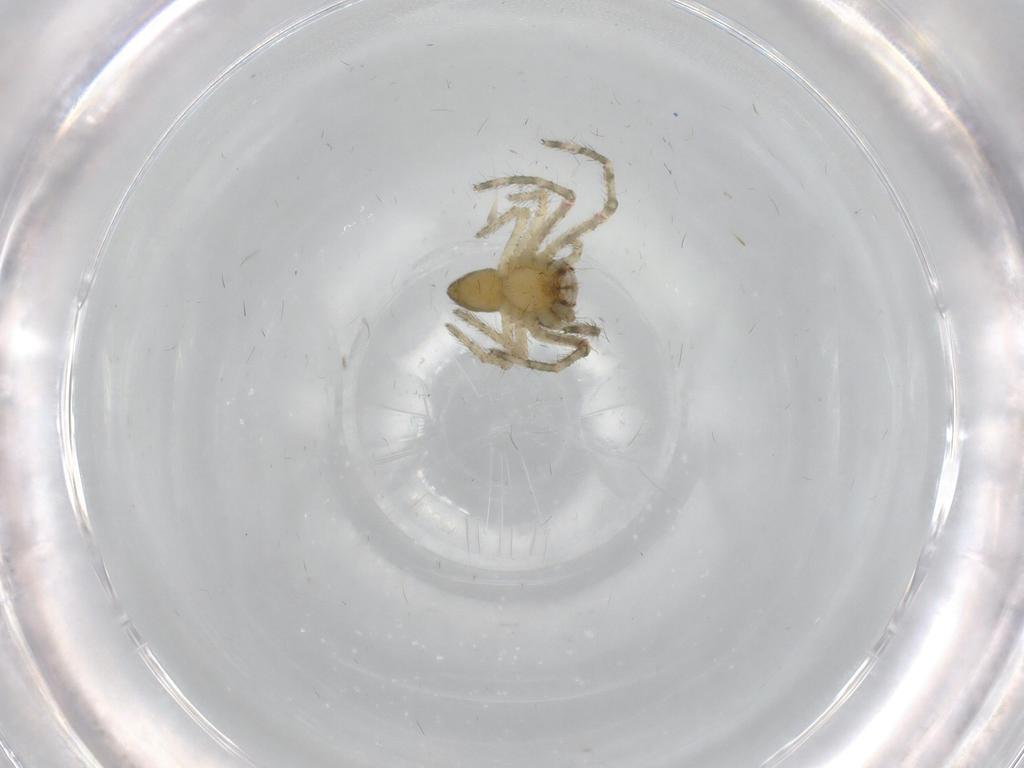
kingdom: Animalia
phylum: Arthropoda
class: Arachnida
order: Araneae
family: Thomisidae
